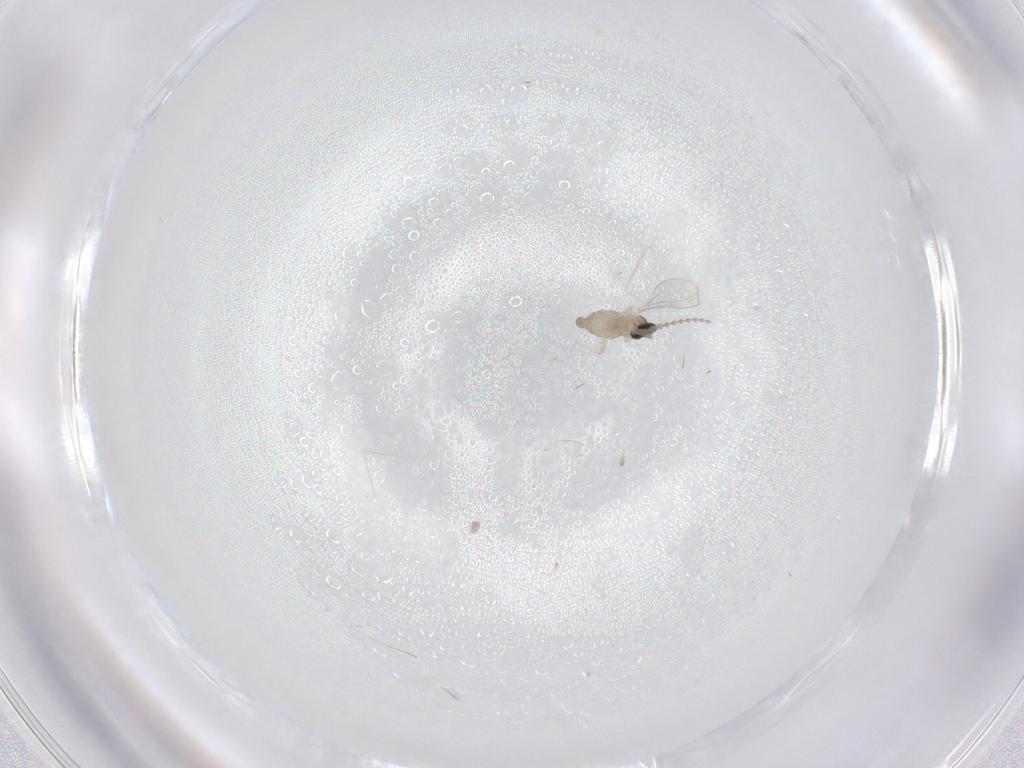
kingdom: Animalia
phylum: Arthropoda
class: Insecta
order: Diptera
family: Cecidomyiidae
